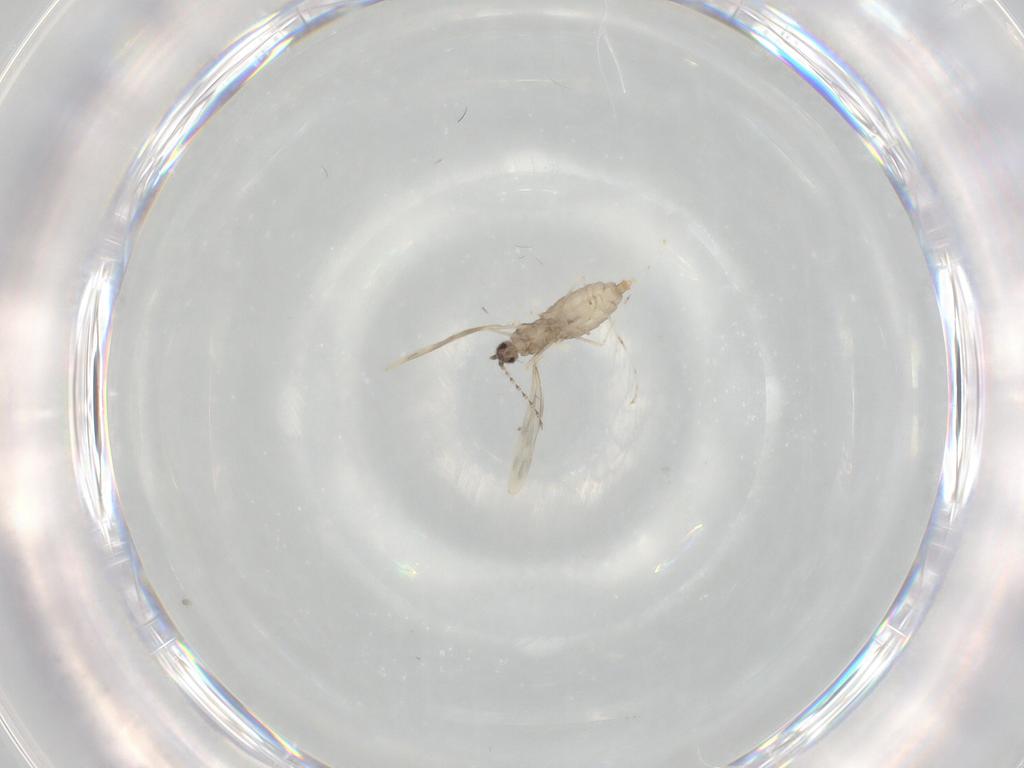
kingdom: Animalia
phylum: Arthropoda
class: Insecta
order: Diptera
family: Cecidomyiidae
